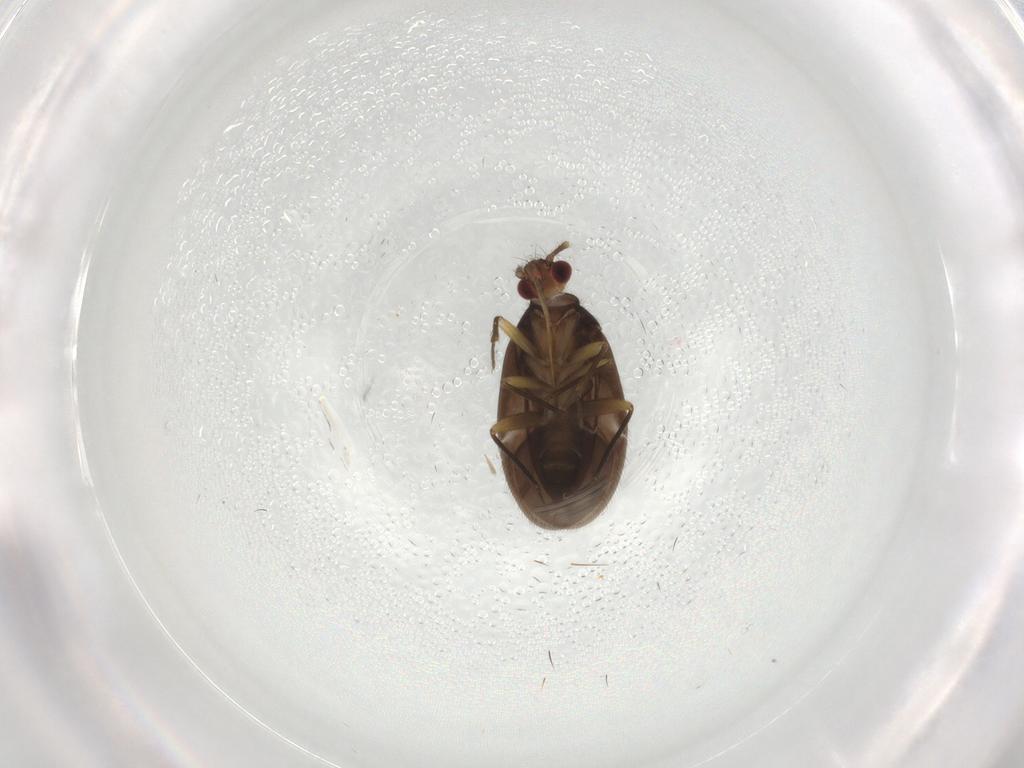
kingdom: Animalia
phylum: Arthropoda
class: Insecta
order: Hemiptera
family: Ceratocombidae
